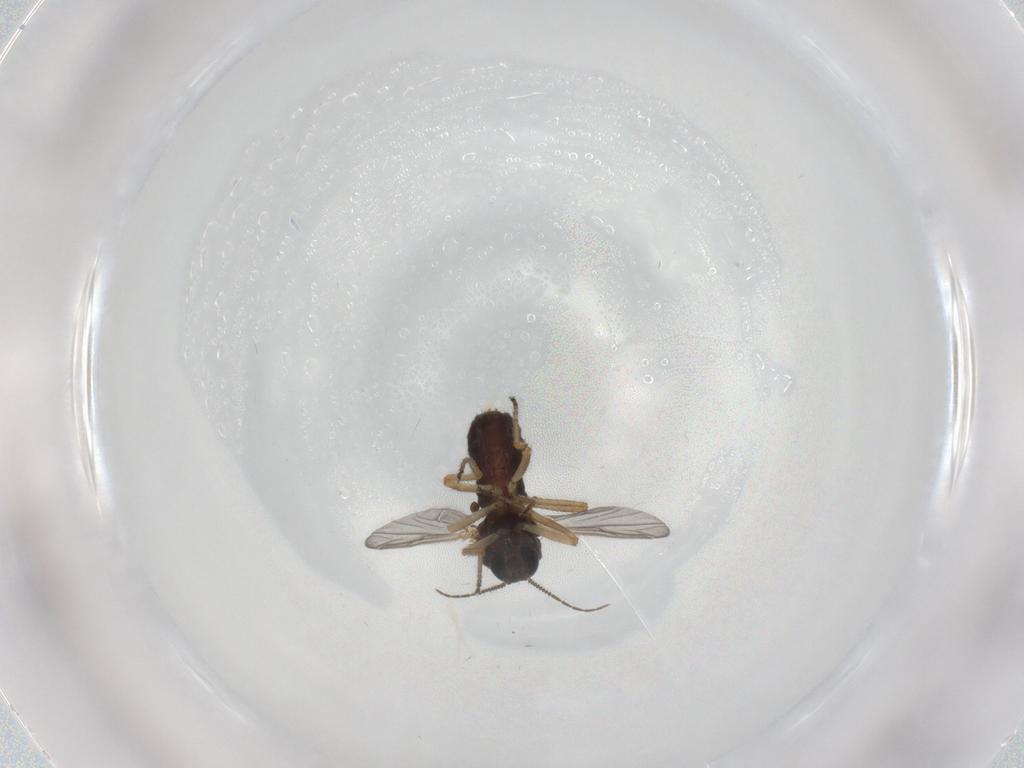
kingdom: Animalia
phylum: Arthropoda
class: Insecta
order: Diptera
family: Ceratopogonidae
